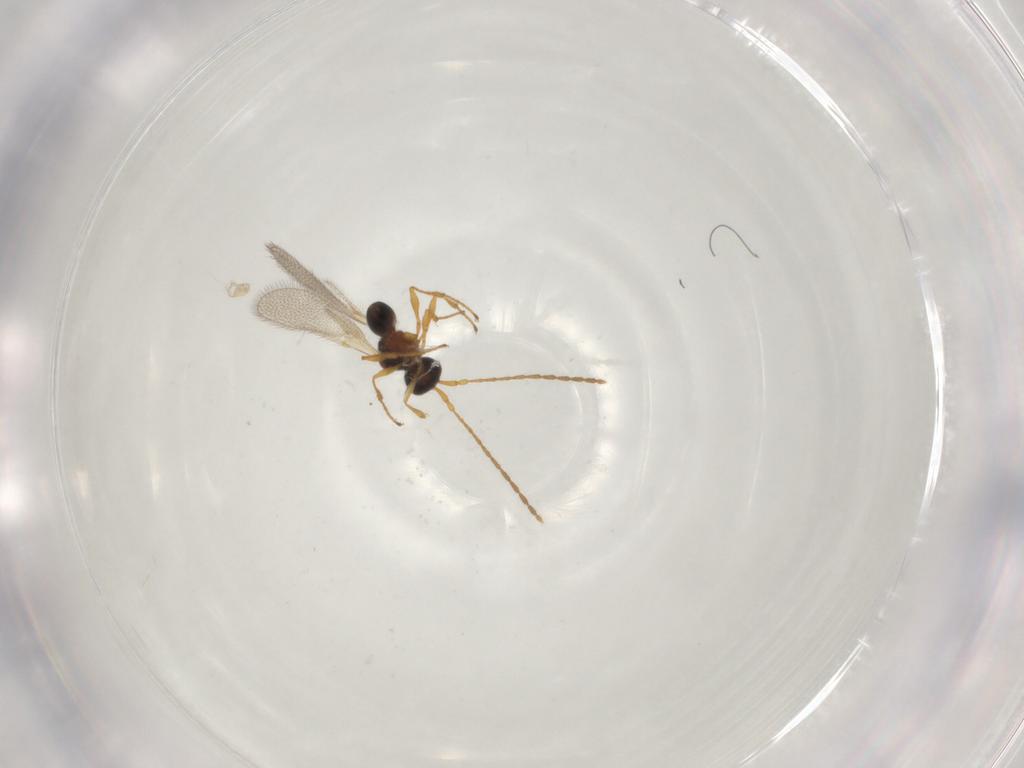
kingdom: Animalia
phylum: Arthropoda
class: Insecta
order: Hymenoptera
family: Diapriidae
